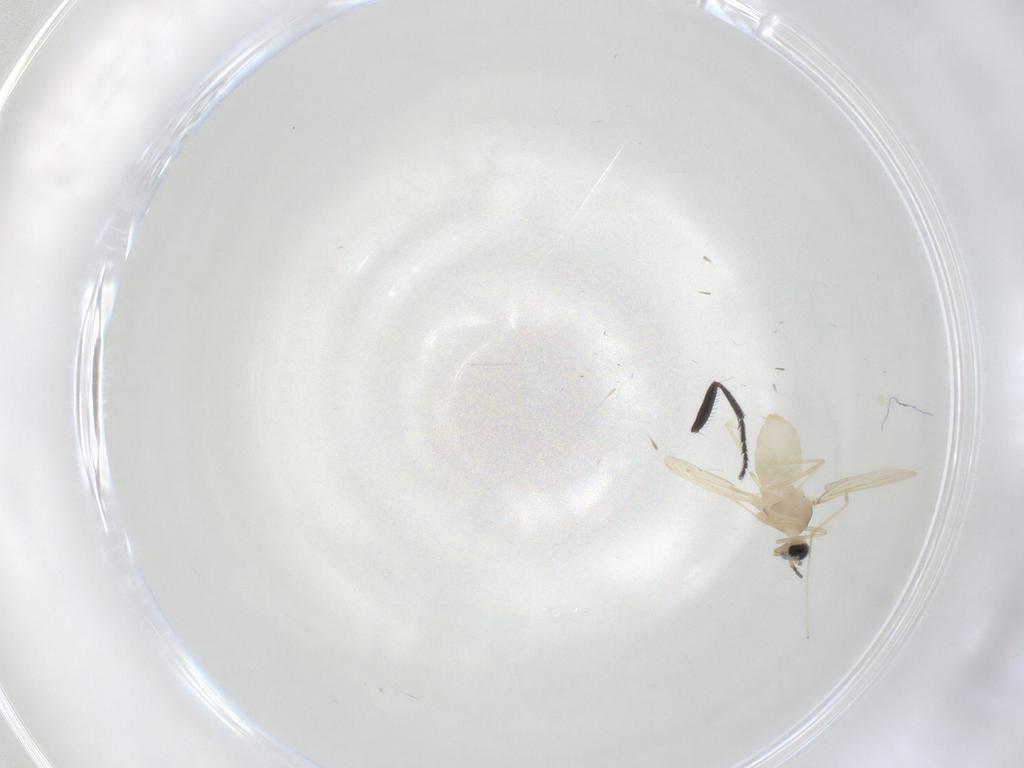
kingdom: Animalia
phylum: Arthropoda
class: Insecta
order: Diptera
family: Cecidomyiidae
